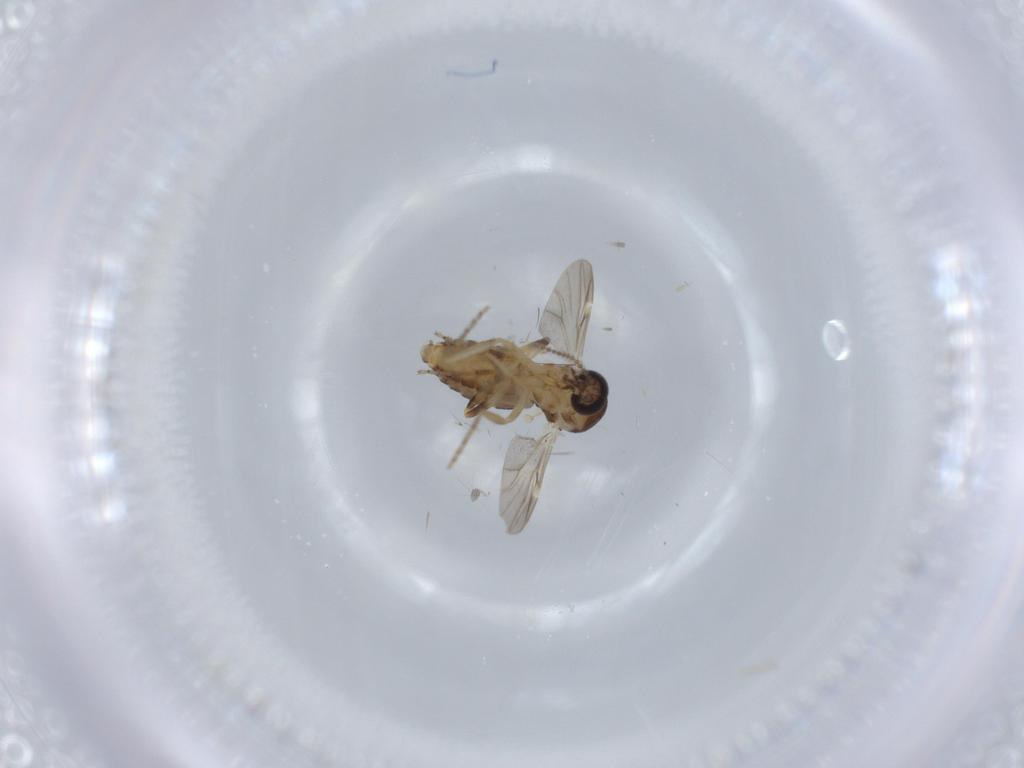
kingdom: Animalia
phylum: Arthropoda
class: Insecta
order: Diptera
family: Ceratopogonidae
